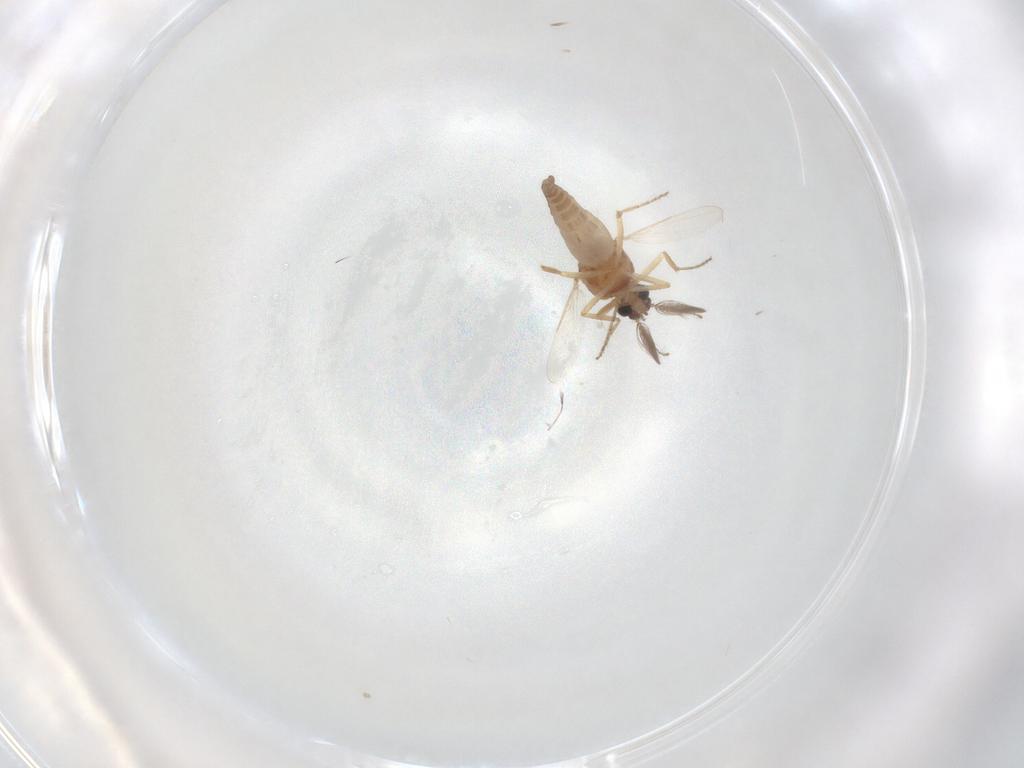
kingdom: Animalia
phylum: Arthropoda
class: Insecta
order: Diptera
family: Ceratopogonidae
